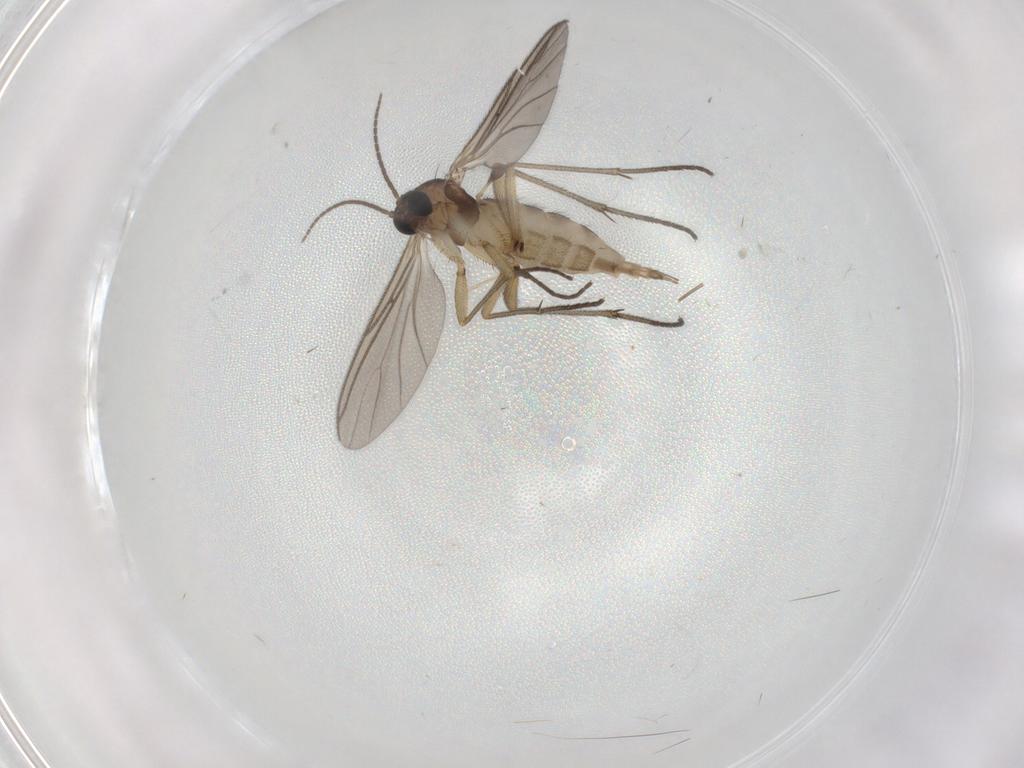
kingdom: Animalia
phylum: Arthropoda
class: Insecta
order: Diptera
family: Sciaridae
